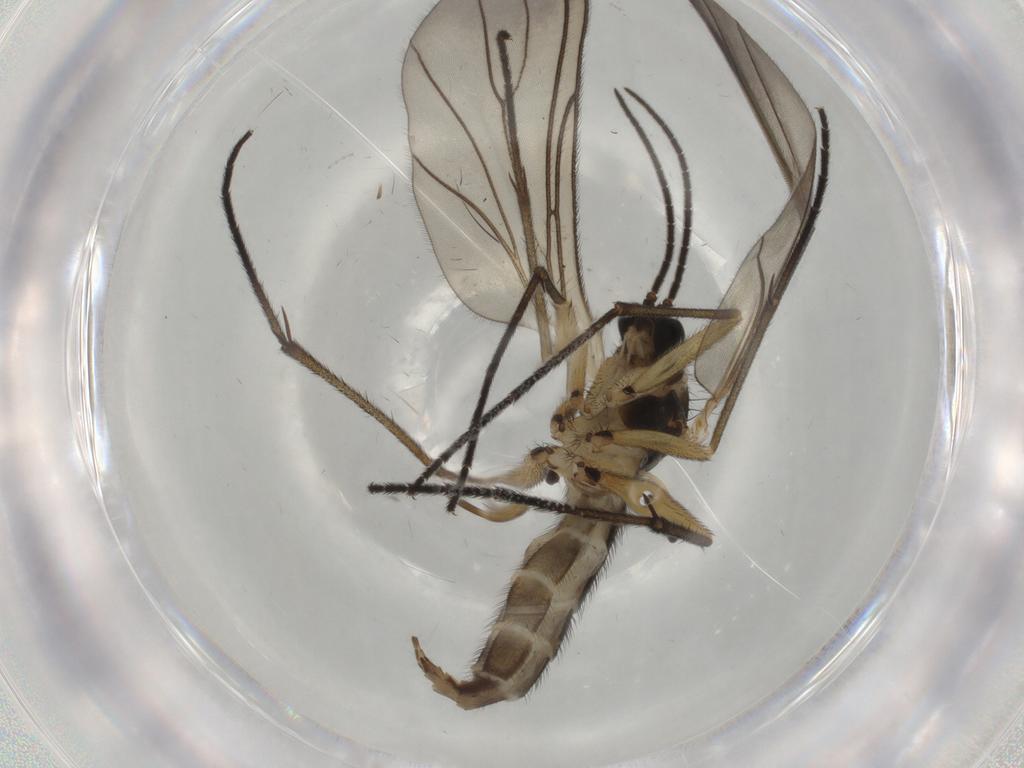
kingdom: Animalia
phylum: Arthropoda
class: Insecta
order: Diptera
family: Sciaridae
